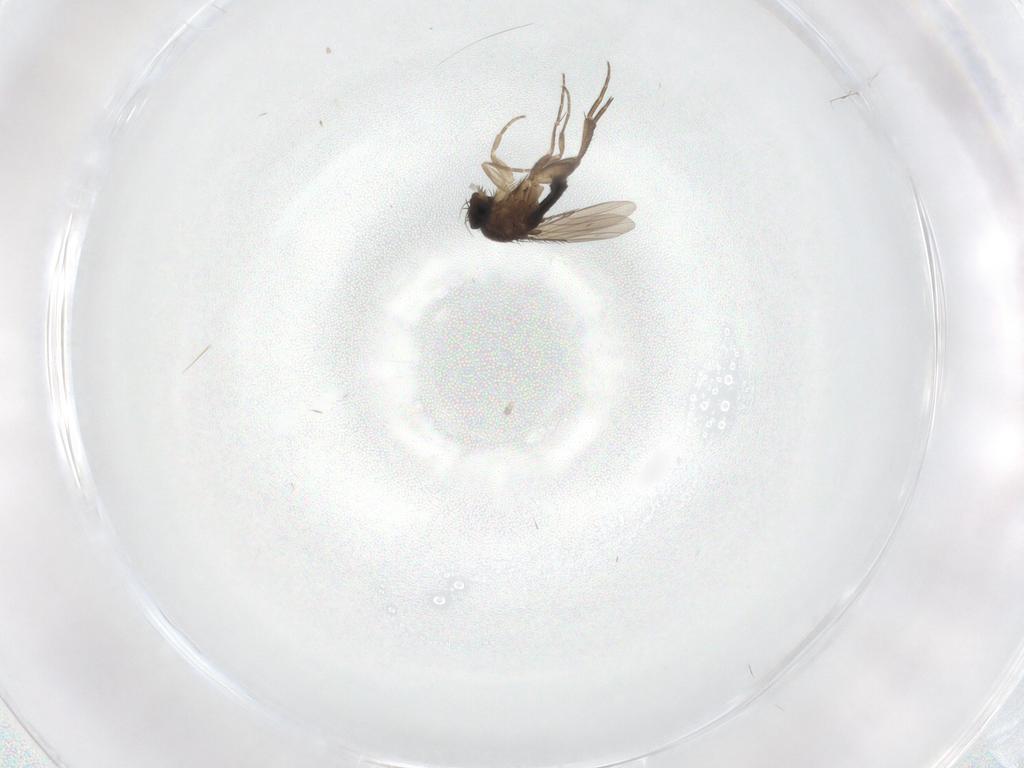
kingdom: Animalia
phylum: Arthropoda
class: Insecta
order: Diptera
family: Phoridae
